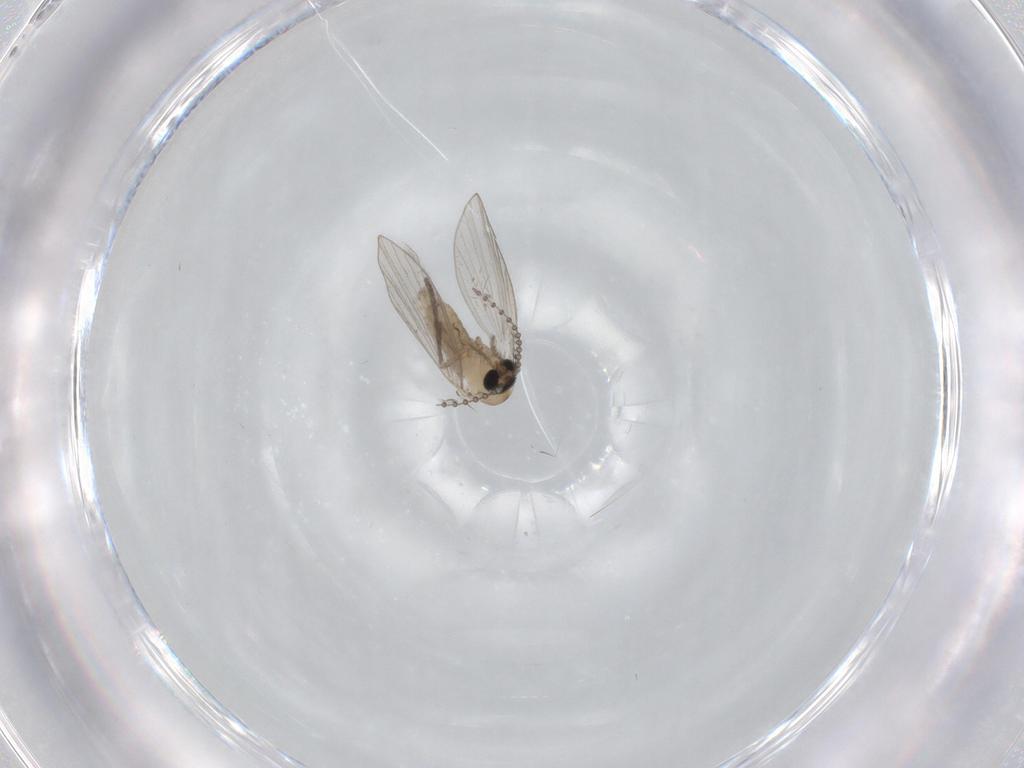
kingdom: Animalia
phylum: Arthropoda
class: Insecta
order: Diptera
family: Psychodidae
